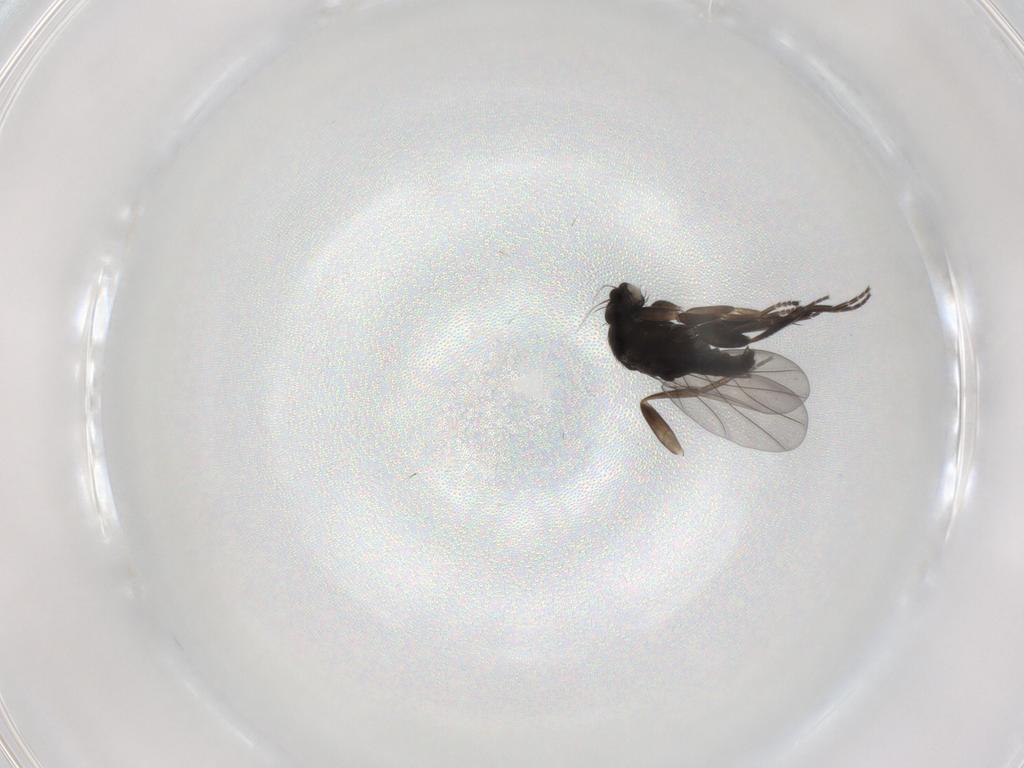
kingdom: Animalia
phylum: Arthropoda
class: Insecta
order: Diptera
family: Phoridae
